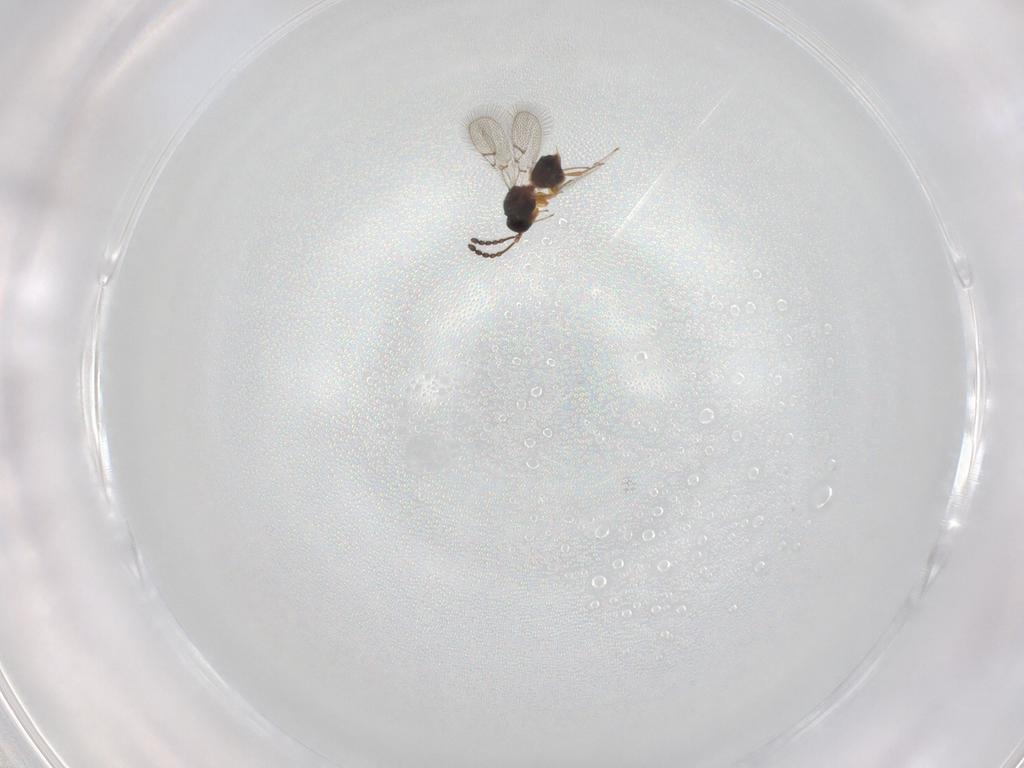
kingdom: Animalia
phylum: Arthropoda
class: Insecta
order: Hymenoptera
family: Figitidae
